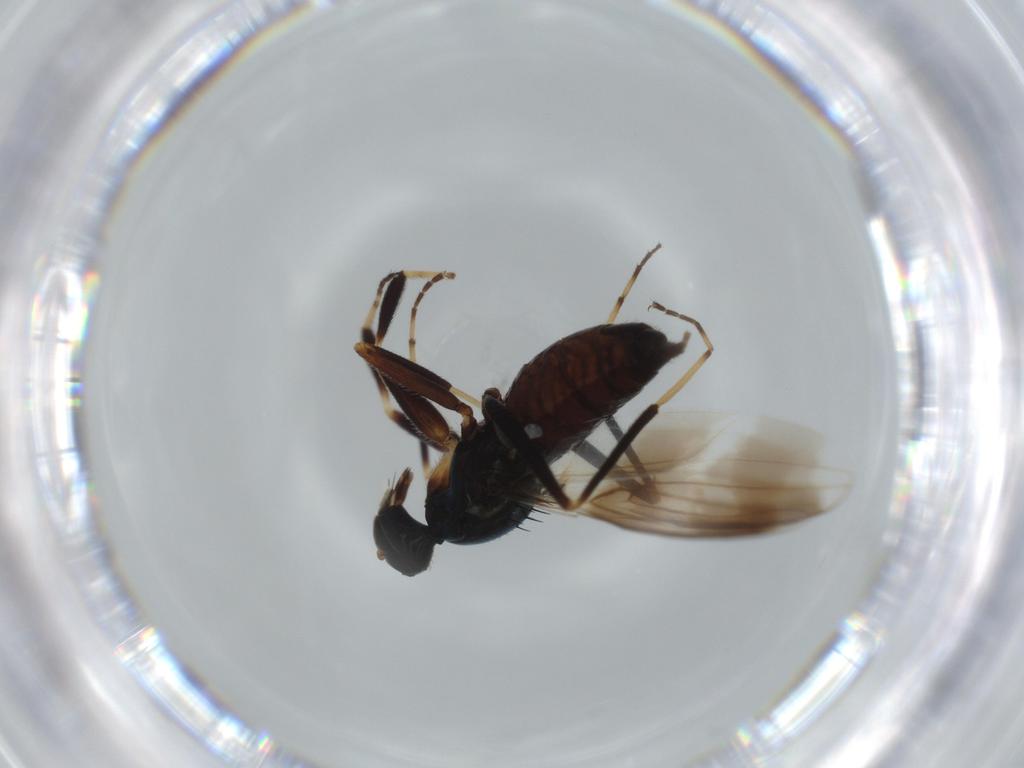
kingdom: Animalia
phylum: Arthropoda
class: Insecta
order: Diptera
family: Hybotidae
